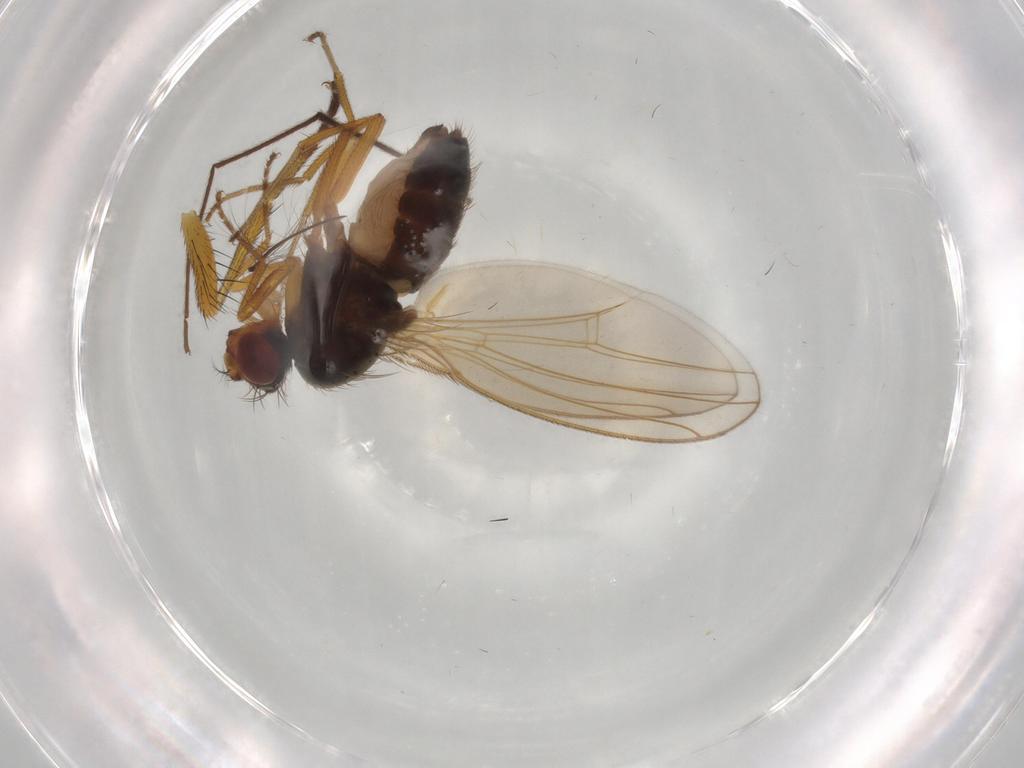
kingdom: Animalia
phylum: Arthropoda
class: Insecta
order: Diptera
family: Drosophilidae
